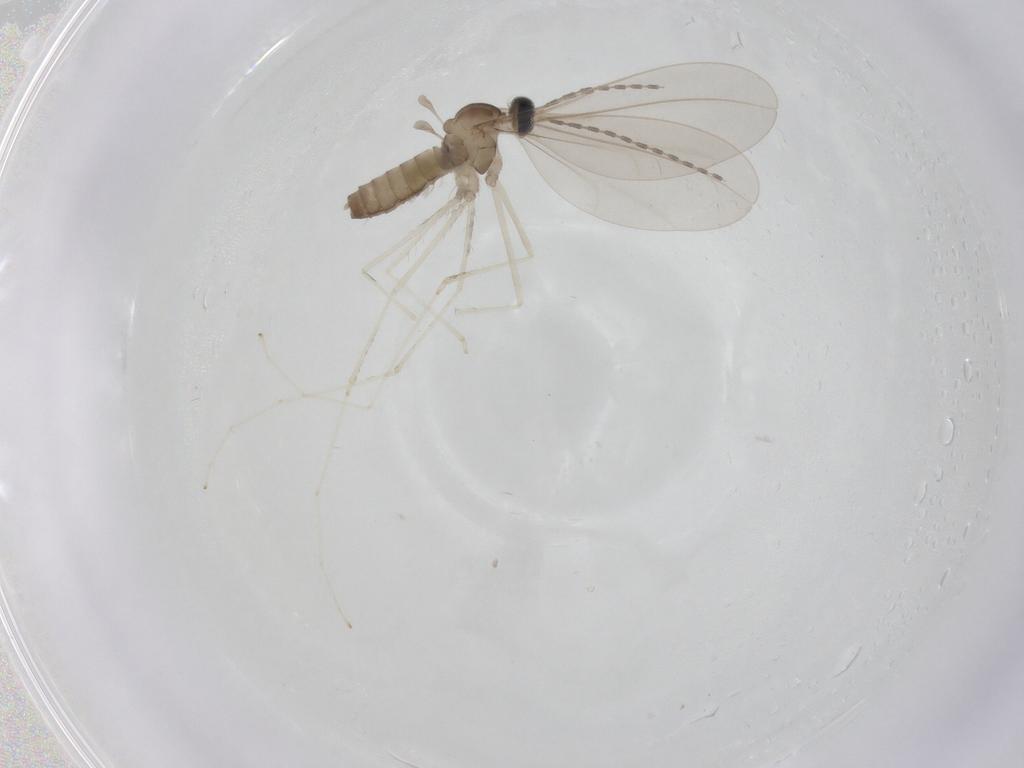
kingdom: Animalia
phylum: Arthropoda
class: Insecta
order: Diptera
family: Cecidomyiidae
